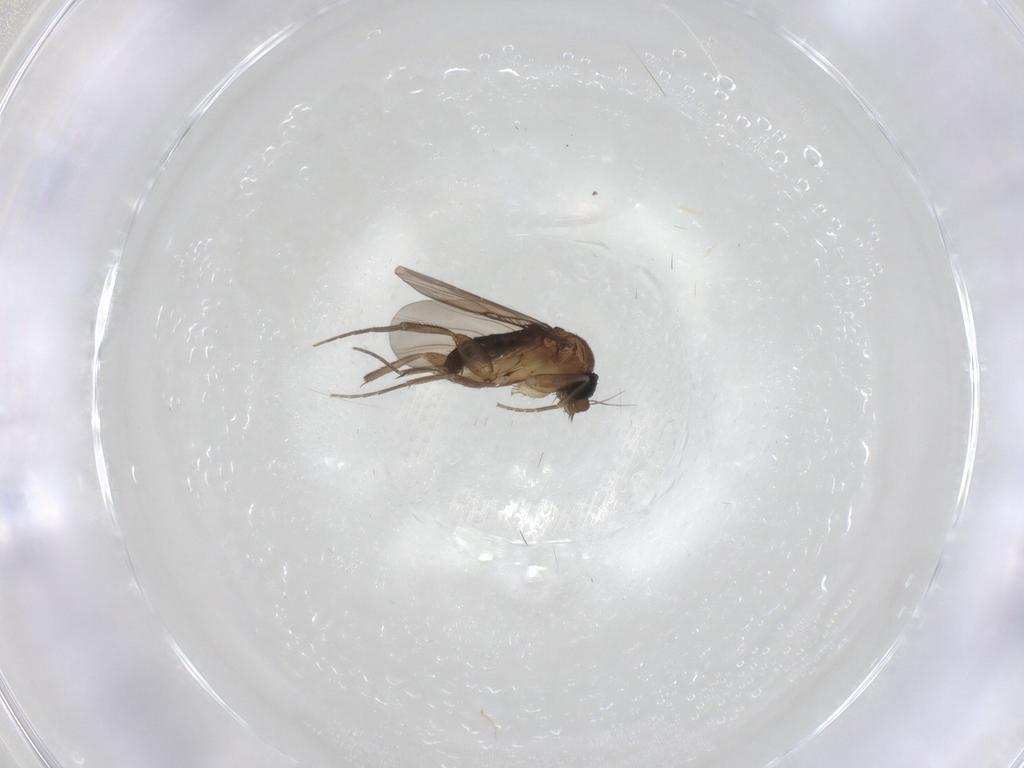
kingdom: Animalia
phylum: Arthropoda
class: Insecta
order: Diptera
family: Phoridae
